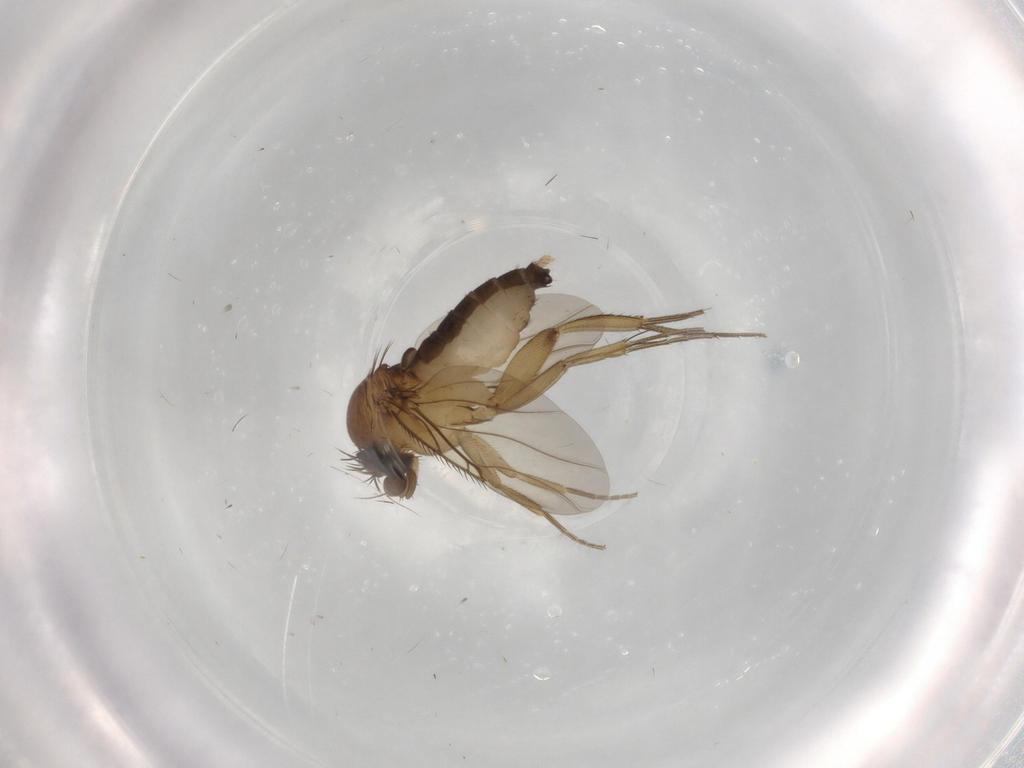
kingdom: Animalia
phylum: Arthropoda
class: Insecta
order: Diptera
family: Phoridae
